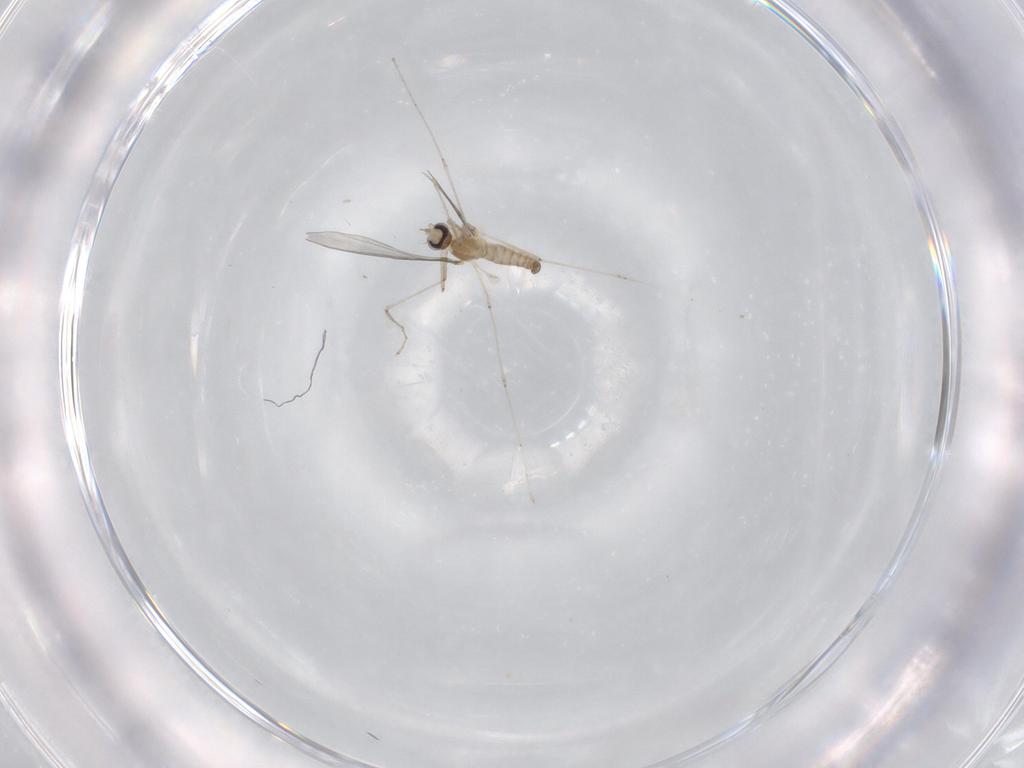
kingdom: Animalia
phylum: Arthropoda
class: Insecta
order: Diptera
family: Cecidomyiidae
